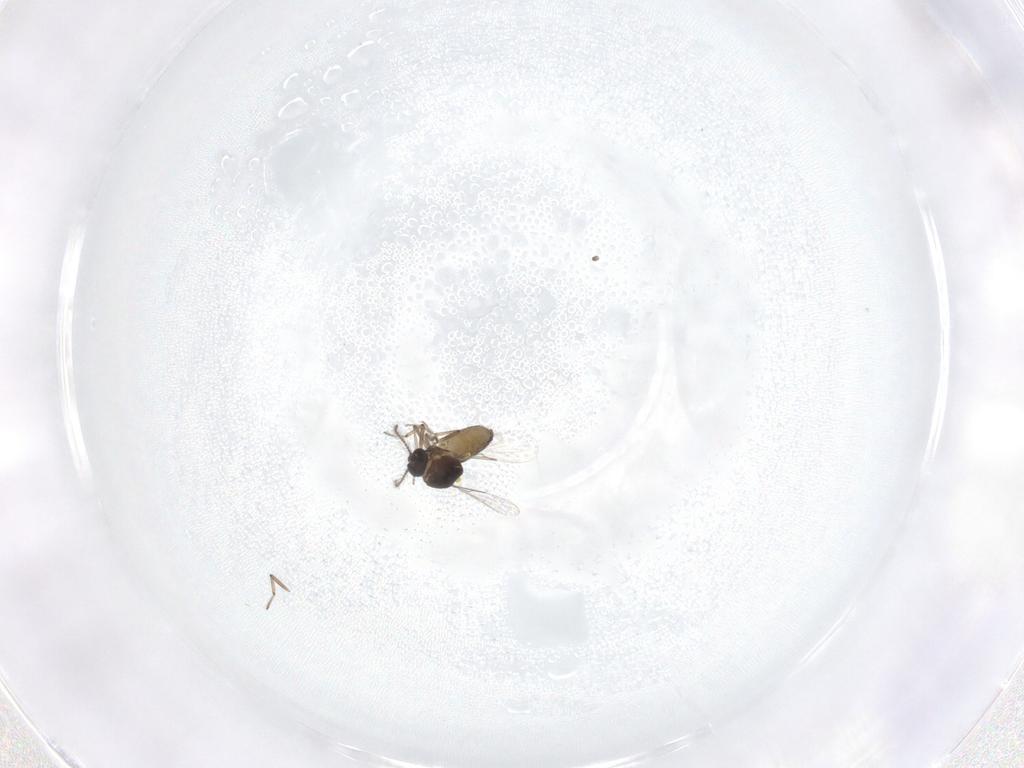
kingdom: Animalia
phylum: Arthropoda
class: Insecta
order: Diptera
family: Ceratopogonidae
